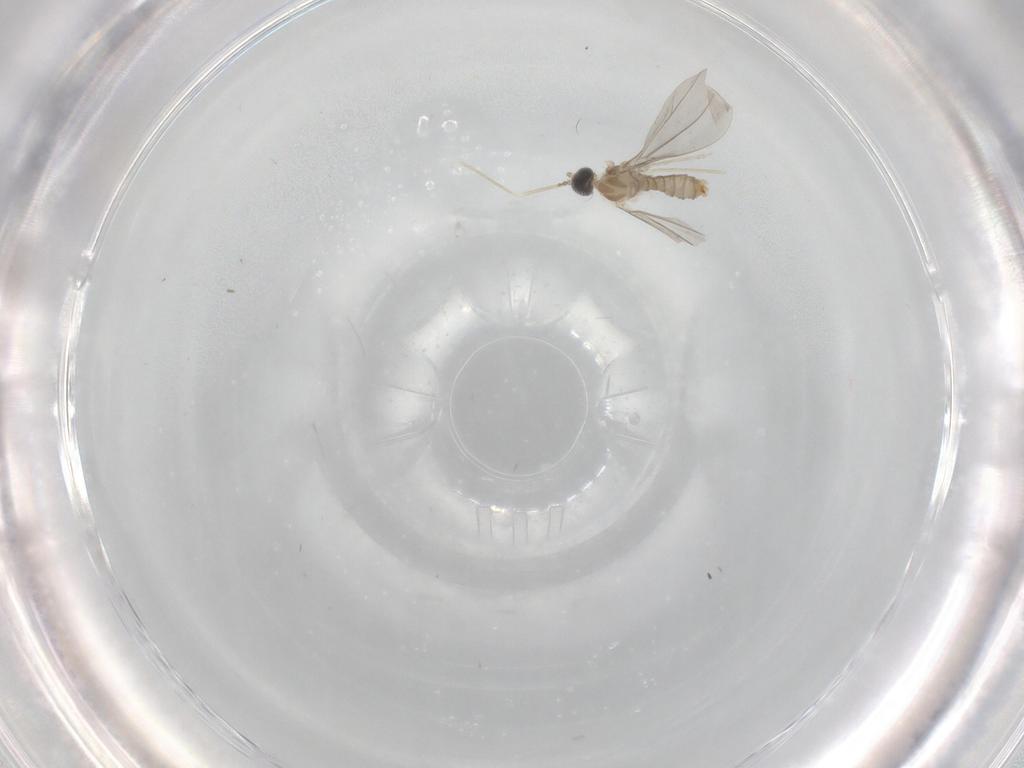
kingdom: Animalia
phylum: Arthropoda
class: Insecta
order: Diptera
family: Cecidomyiidae
